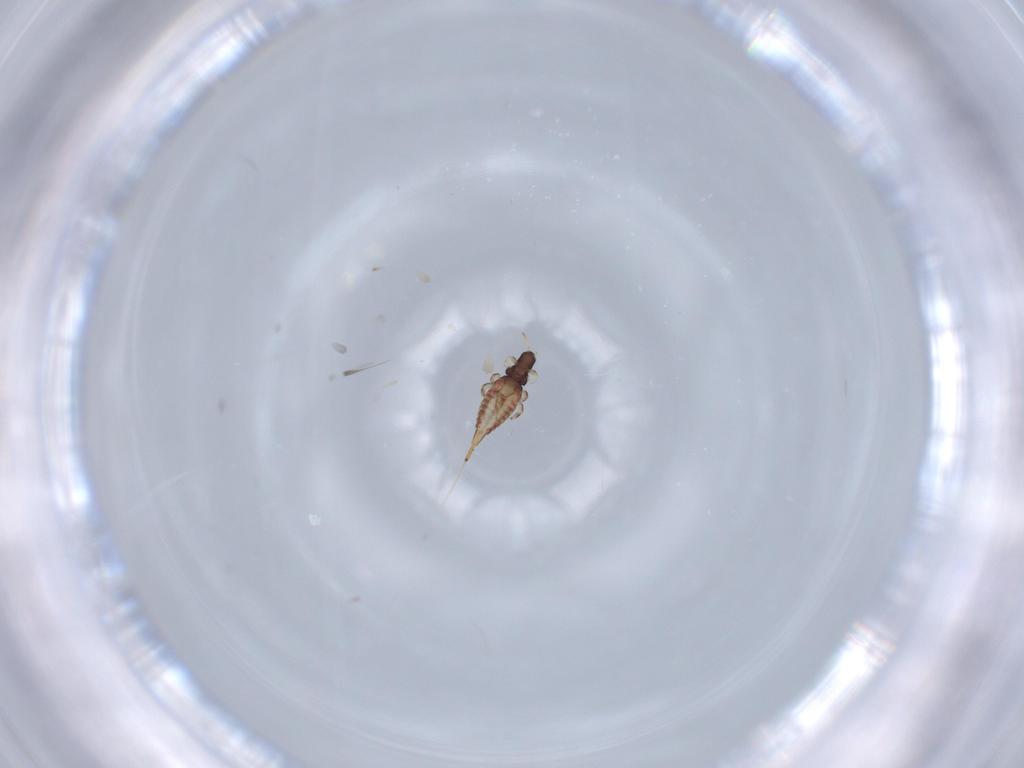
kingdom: Animalia
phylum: Arthropoda
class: Insecta
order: Thysanoptera
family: Phlaeothripidae
